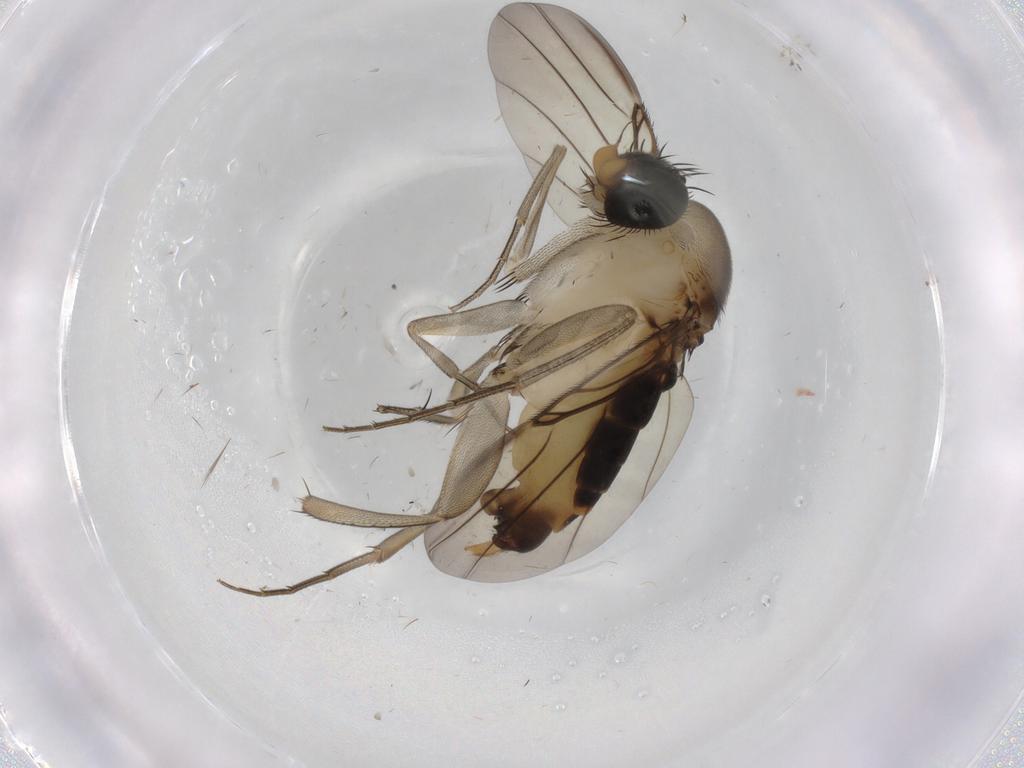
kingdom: Animalia
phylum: Arthropoda
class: Insecta
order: Diptera
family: Phoridae
